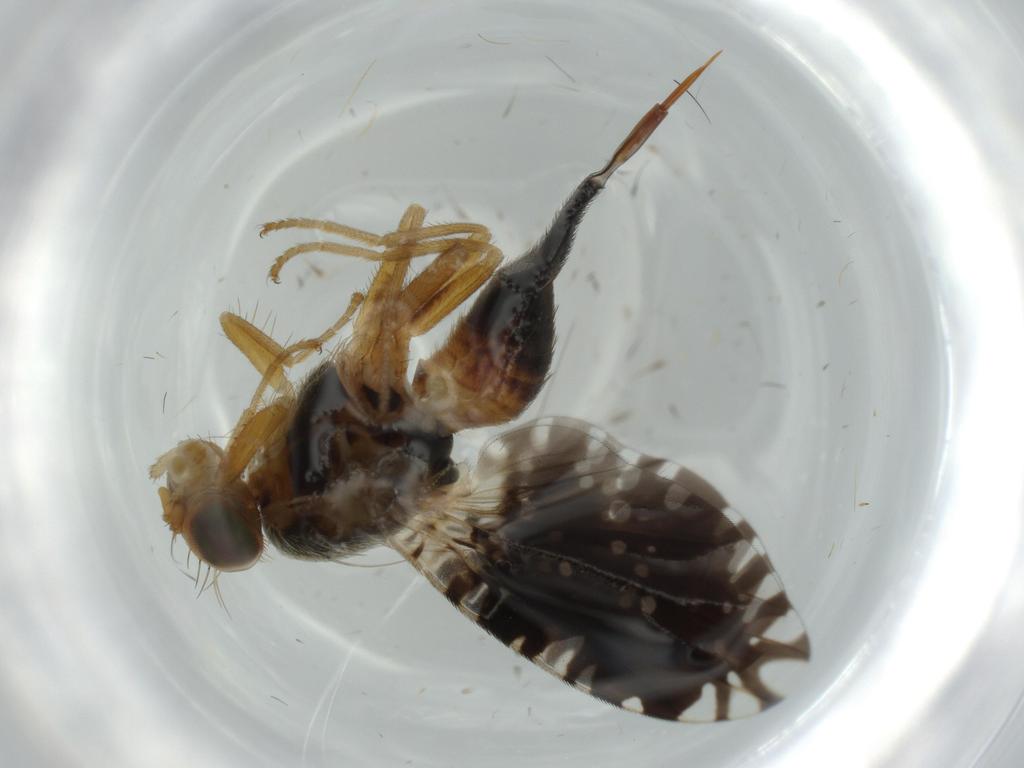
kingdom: Animalia
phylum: Arthropoda
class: Insecta
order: Diptera
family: Tephritidae
